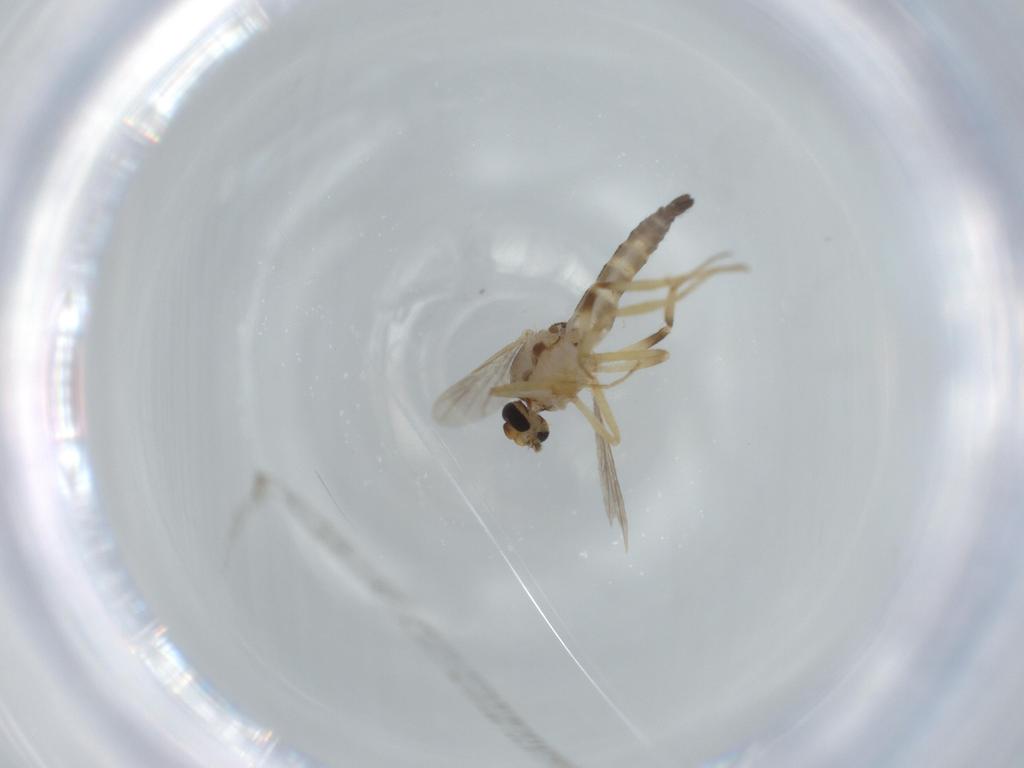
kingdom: Animalia
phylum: Arthropoda
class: Insecta
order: Diptera
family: Ceratopogonidae
